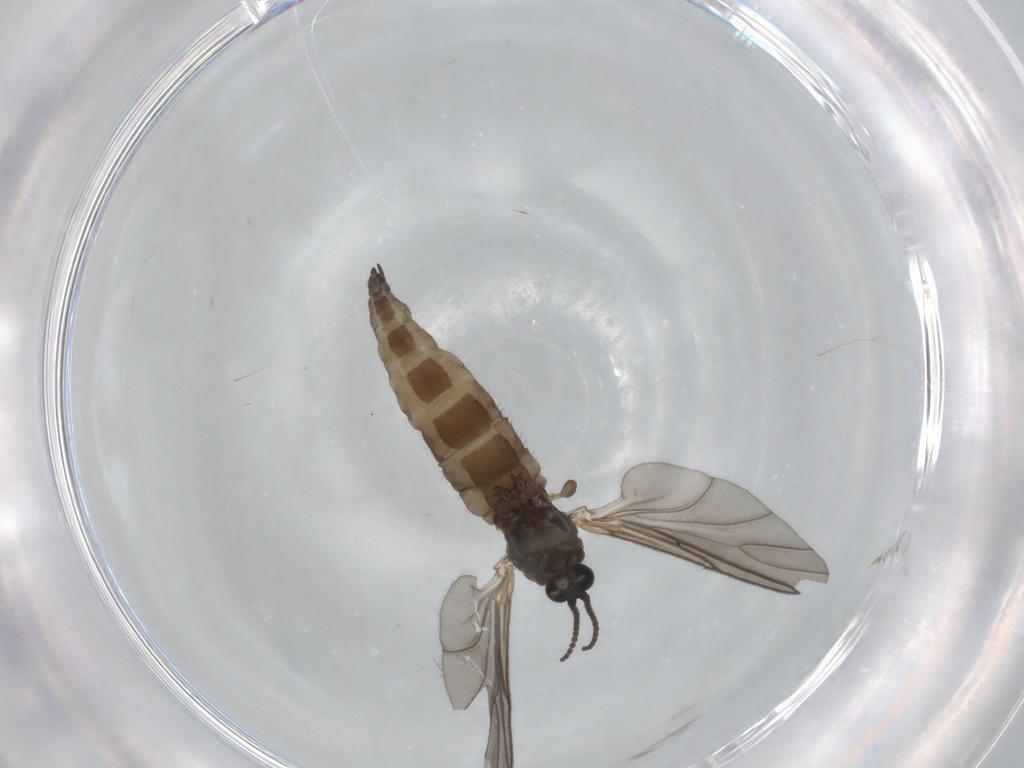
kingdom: Animalia
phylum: Arthropoda
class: Insecta
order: Diptera
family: Sciaridae
